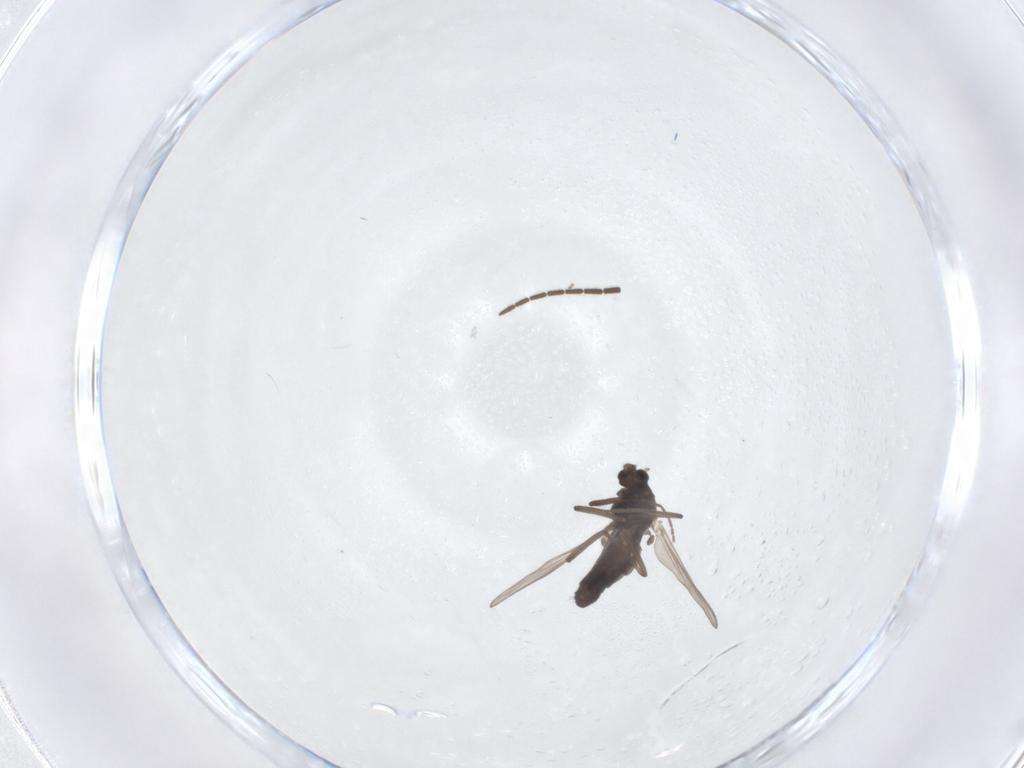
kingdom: Animalia
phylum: Arthropoda
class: Insecta
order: Diptera
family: Chironomidae
